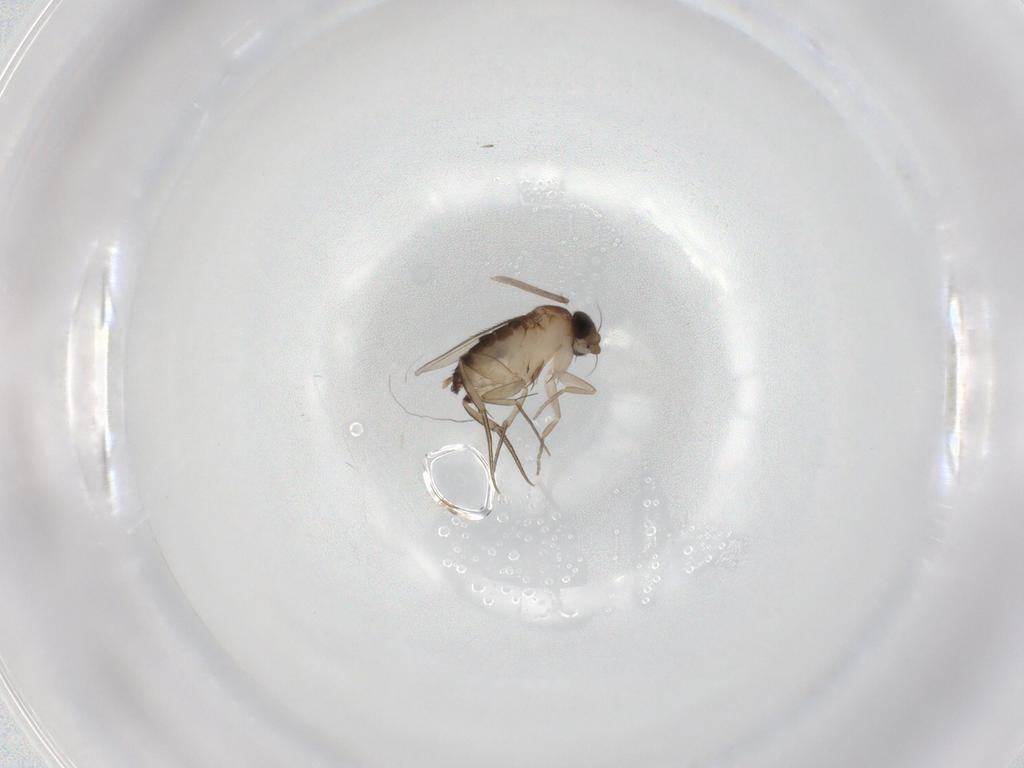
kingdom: Animalia
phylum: Arthropoda
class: Insecta
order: Diptera
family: Phoridae
